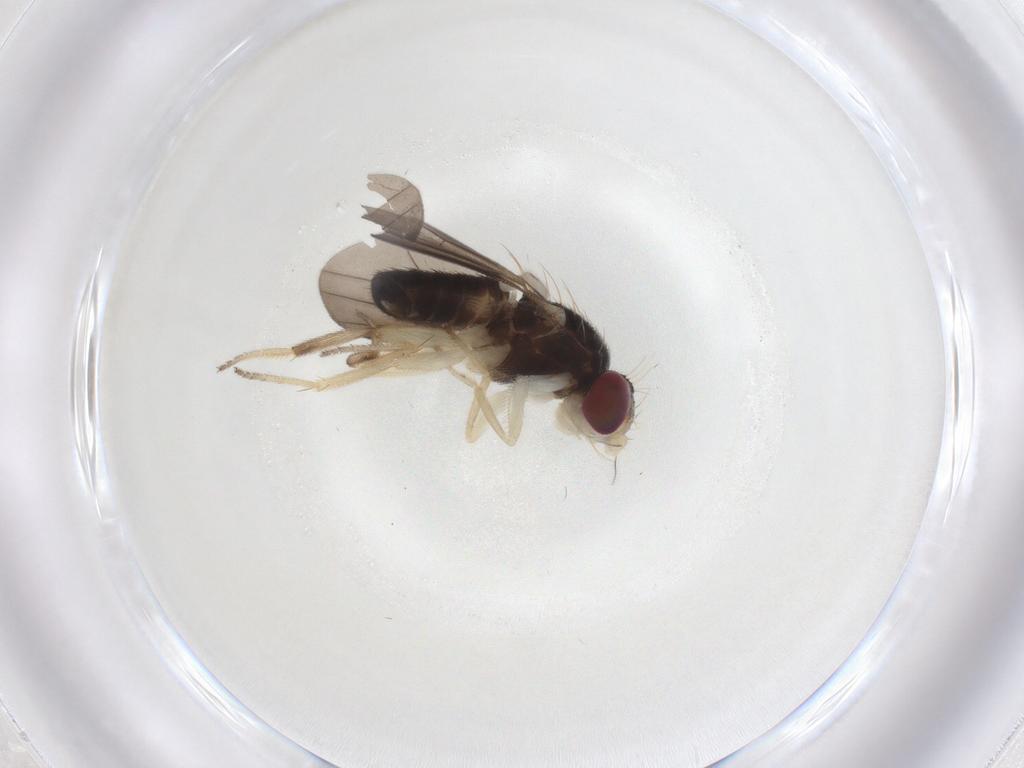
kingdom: Animalia
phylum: Arthropoda
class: Insecta
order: Diptera
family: Clusiidae
